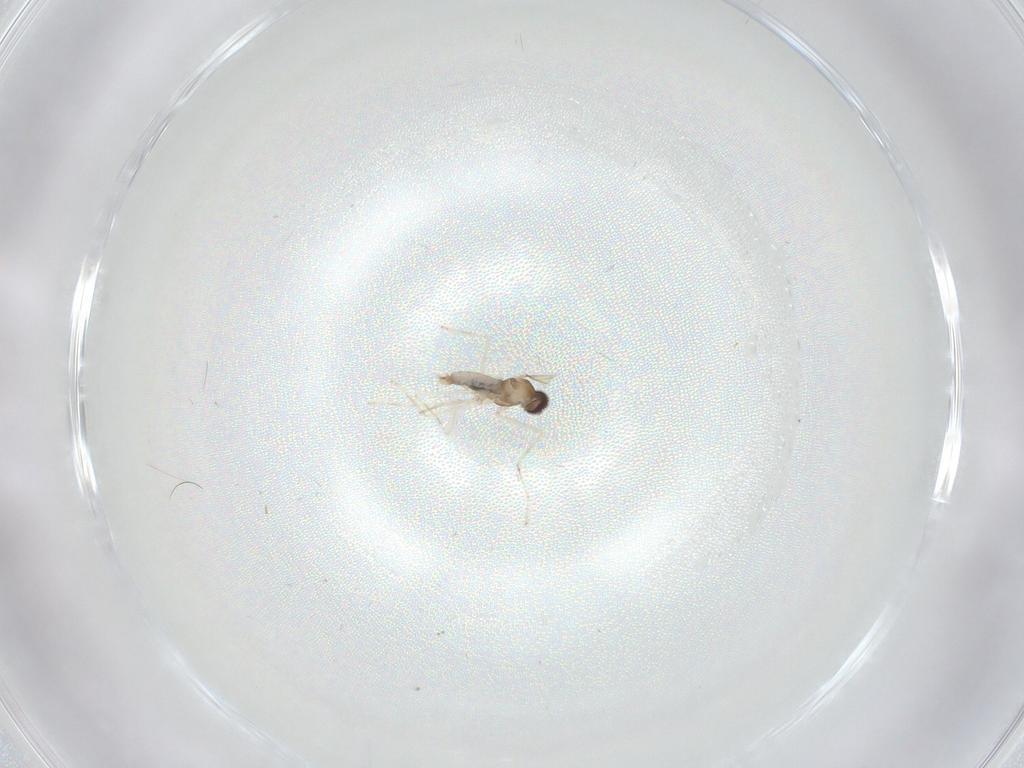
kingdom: Animalia
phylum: Arthropoda
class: Insecta
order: Diptera
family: Cecidomyiidae
